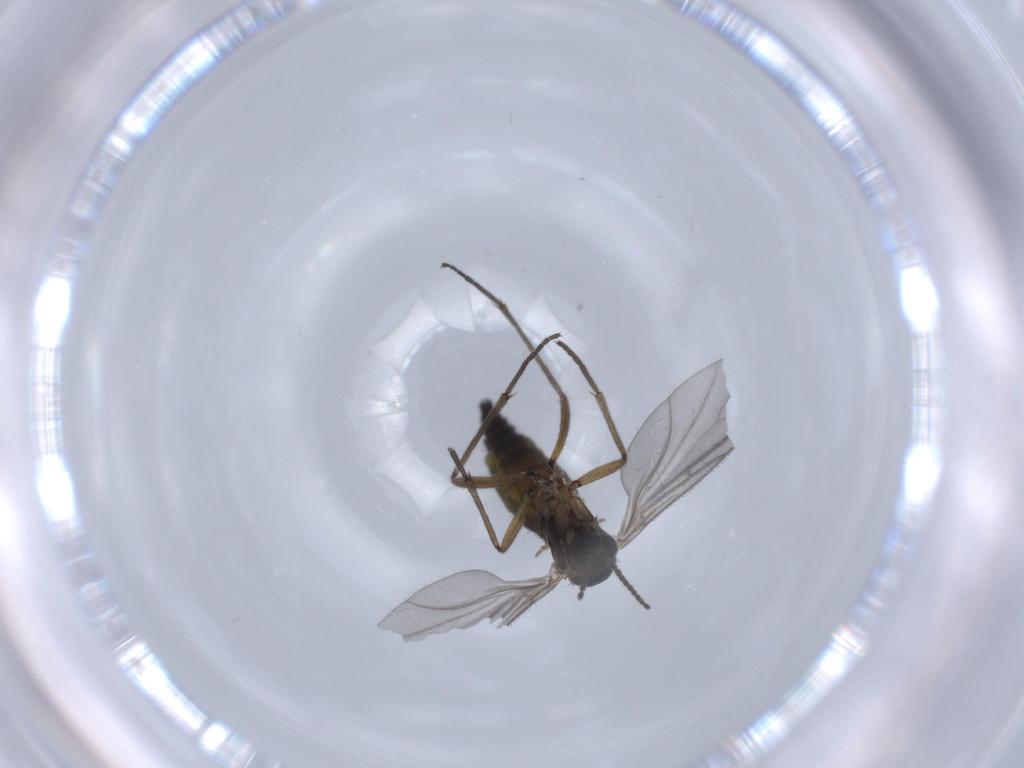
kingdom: Animalia
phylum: Arthropoda
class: Insecta
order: Diptera
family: Sciaridae
